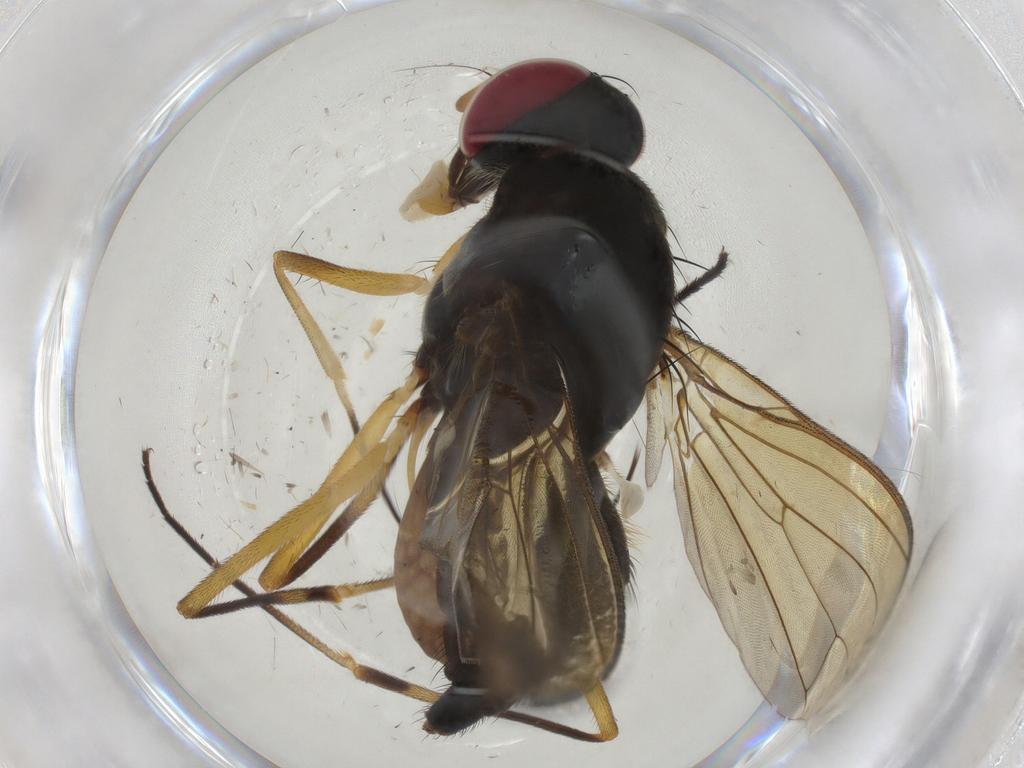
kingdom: Animalia
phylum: Arthropoda
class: Insecta
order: Diptera
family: Heleomyzidae
